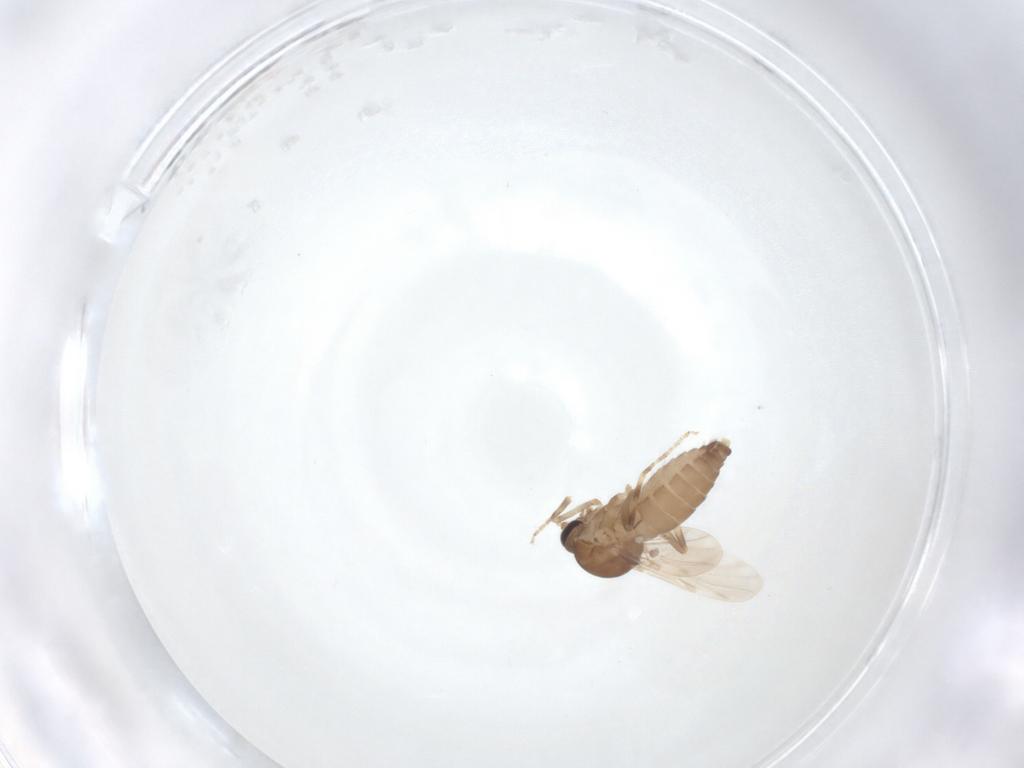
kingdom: Animalia
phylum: Arthropoda
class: Insecta
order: Diptera
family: Ceratopogonidae
